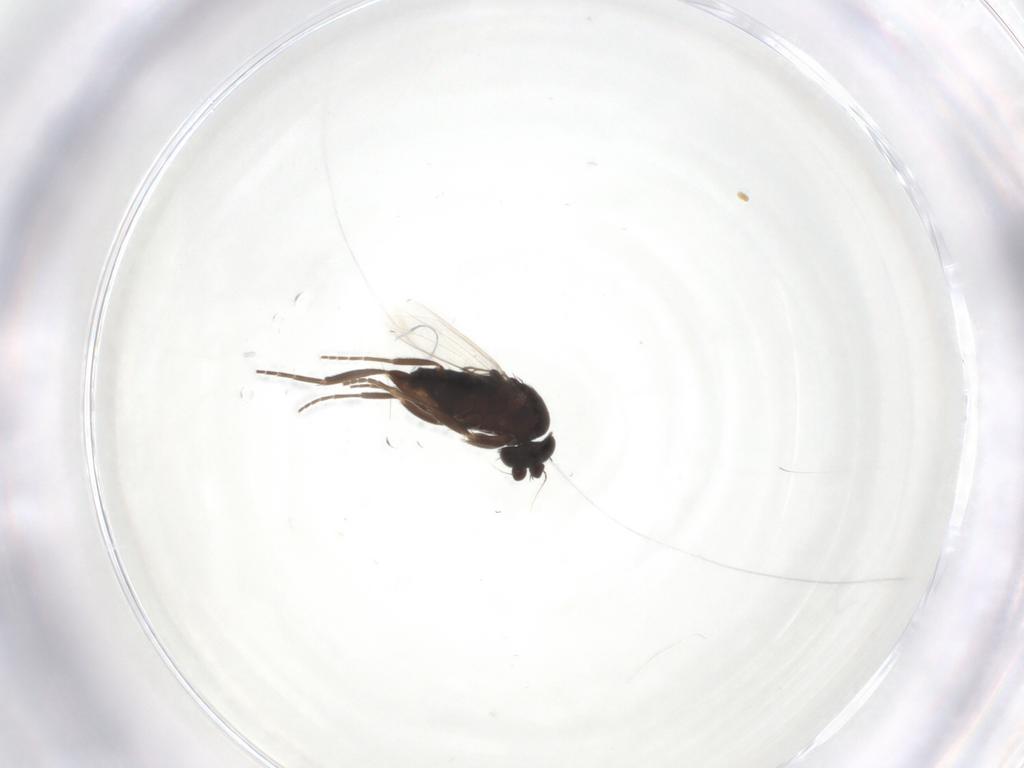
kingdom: Animalia
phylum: Arthropoda
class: Insecta
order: Diptera
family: Phoridae
